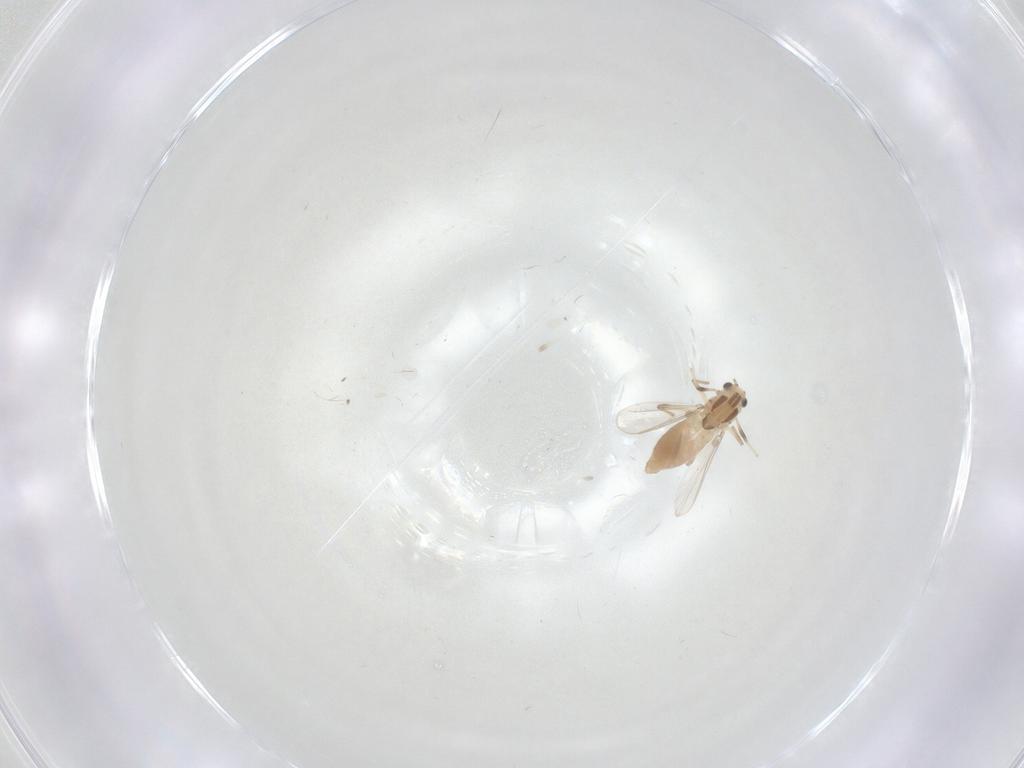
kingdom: Animalia
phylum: Arthropoda
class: Insecta
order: Diptera
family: Chironomidae
